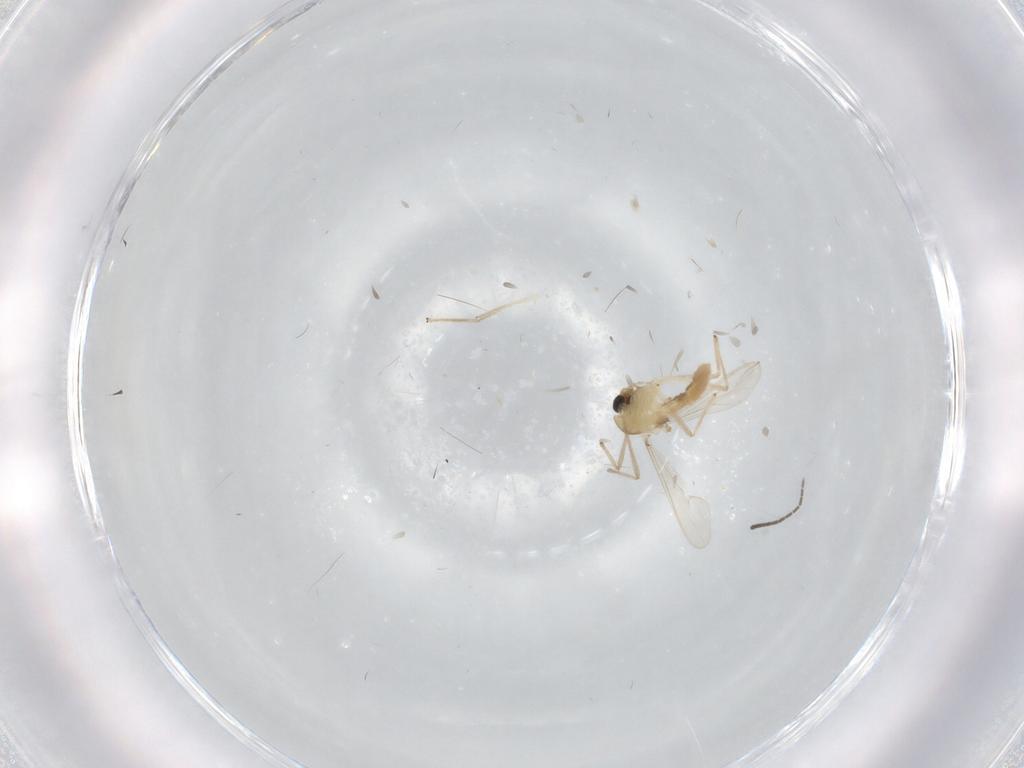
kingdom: Animalia
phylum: Arthropoda
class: Insecta
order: Diptera
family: Sciaridae
